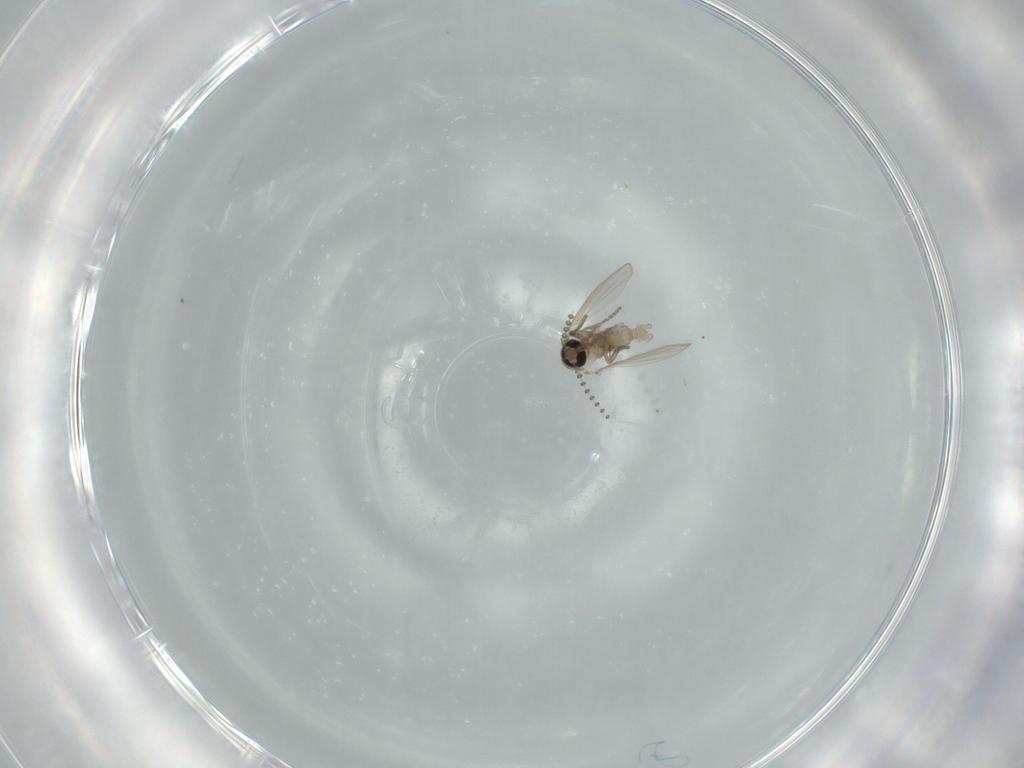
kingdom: Animalia
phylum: Arthropoda
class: Insecta
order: Diptera
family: Psychodidae
